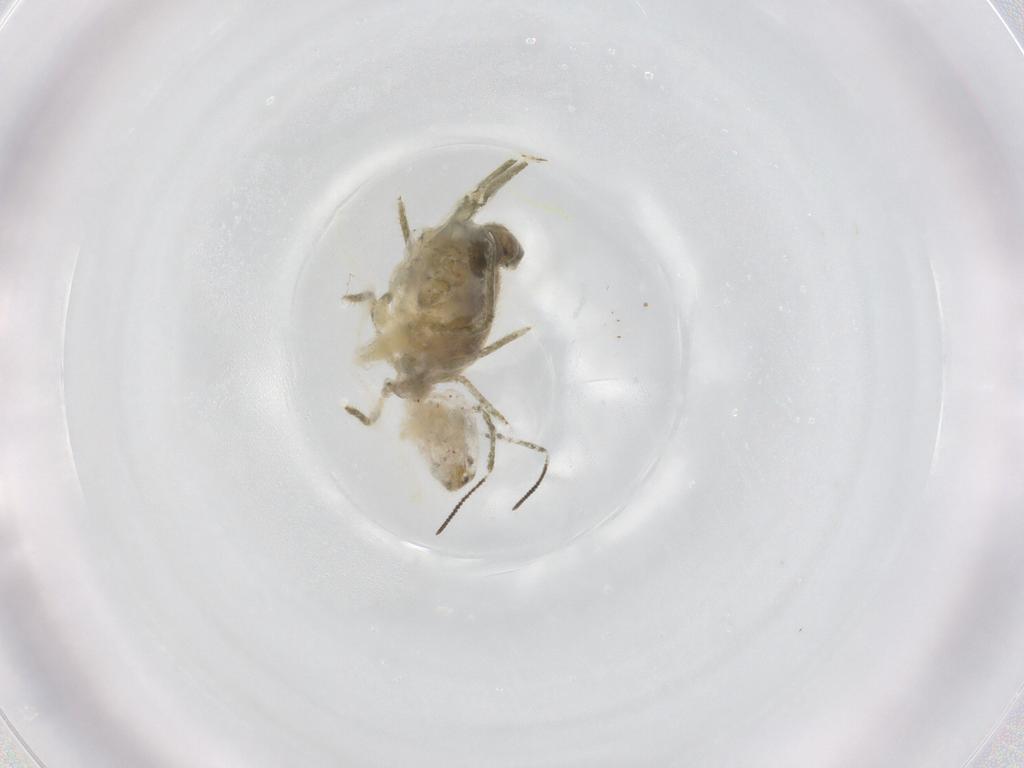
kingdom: Animalia
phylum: Arthropoda
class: Collembola
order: Symphypleona
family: Sminthuridae
